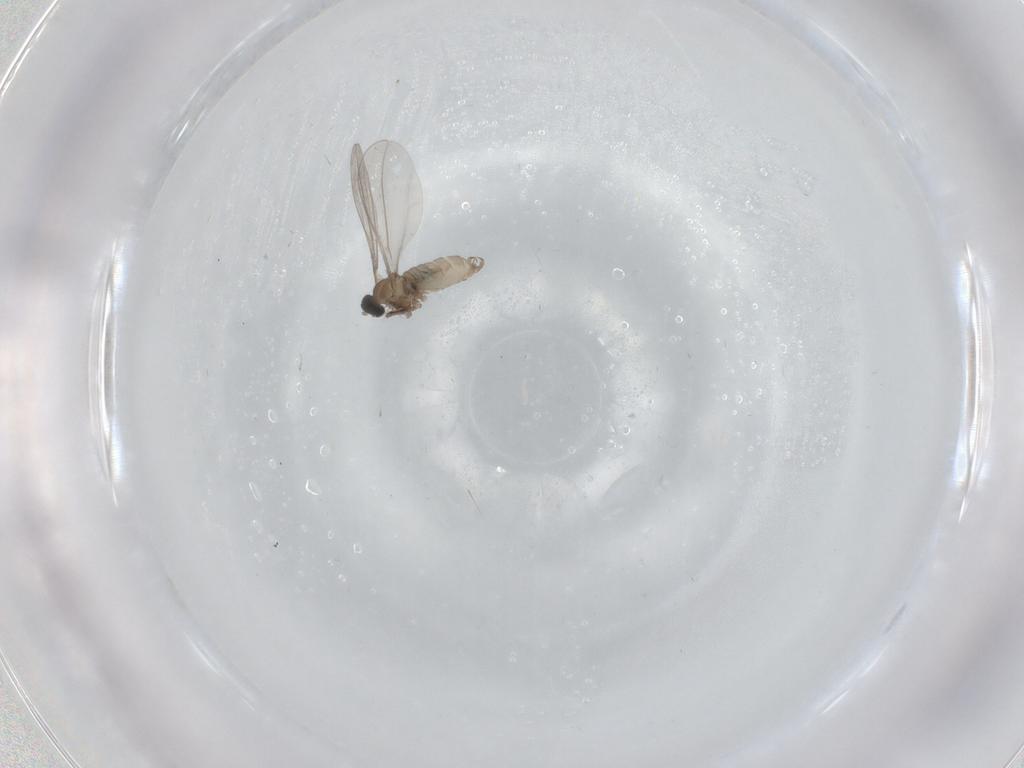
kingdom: Animalia
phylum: Arthropoda
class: Insecta
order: Diptera
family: Cecidomyiidae
